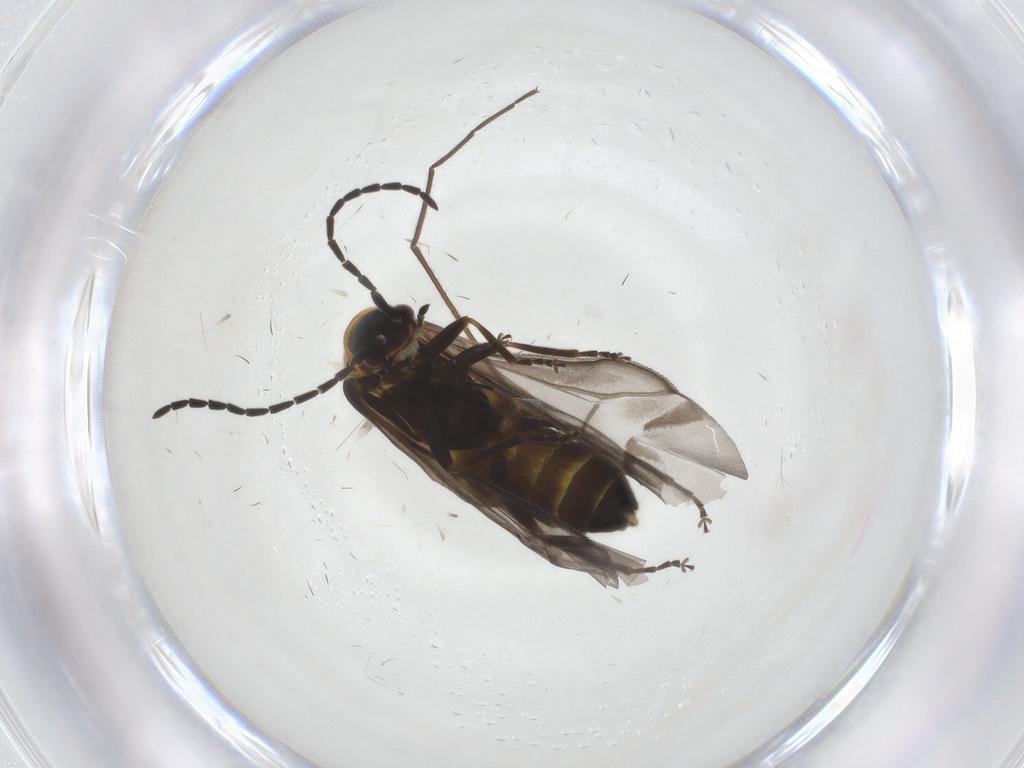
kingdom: Animalia
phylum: Arthropoda
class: Insecta
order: Coleoptera
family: Cantharidae
